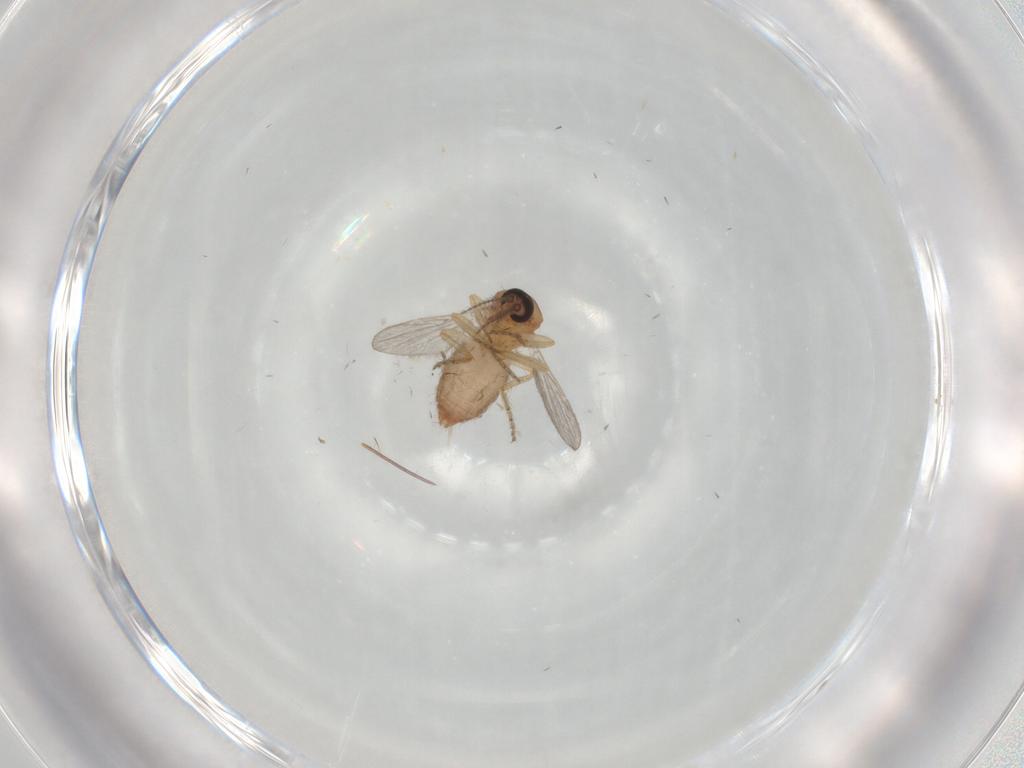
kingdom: Animalia
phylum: Arthropoda
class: Insecta
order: Diptera
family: Ceratopogonidae
